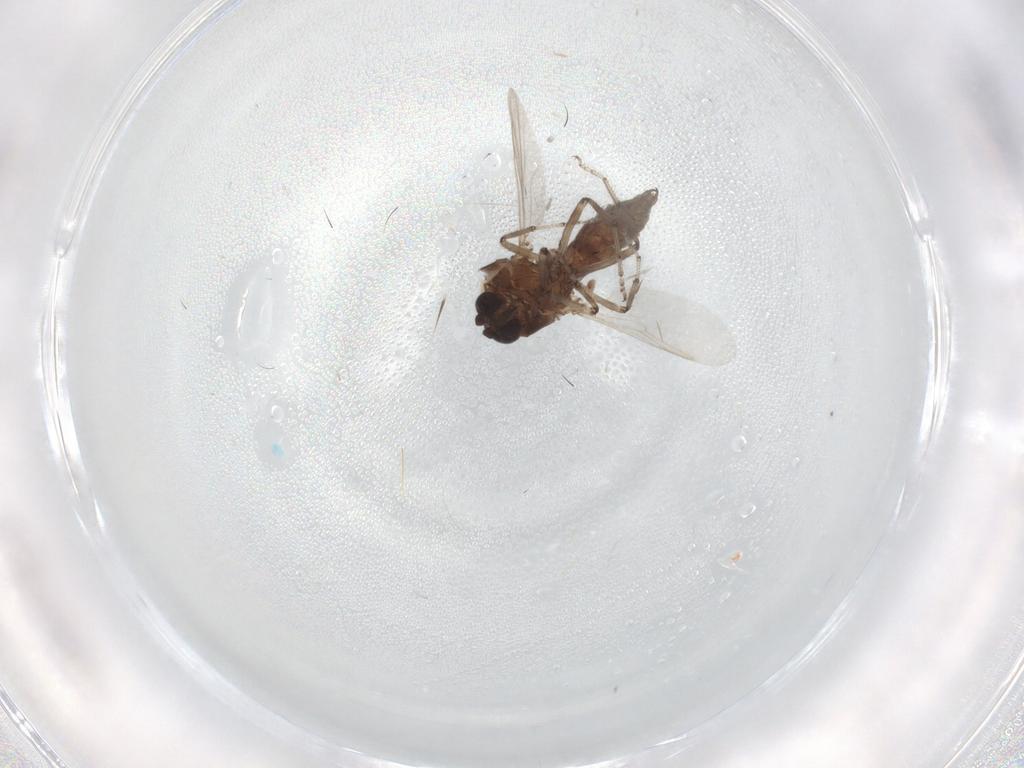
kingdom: Animalia
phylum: Arthropoda
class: Insecta
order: Diptera
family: Ceratopogonidae
